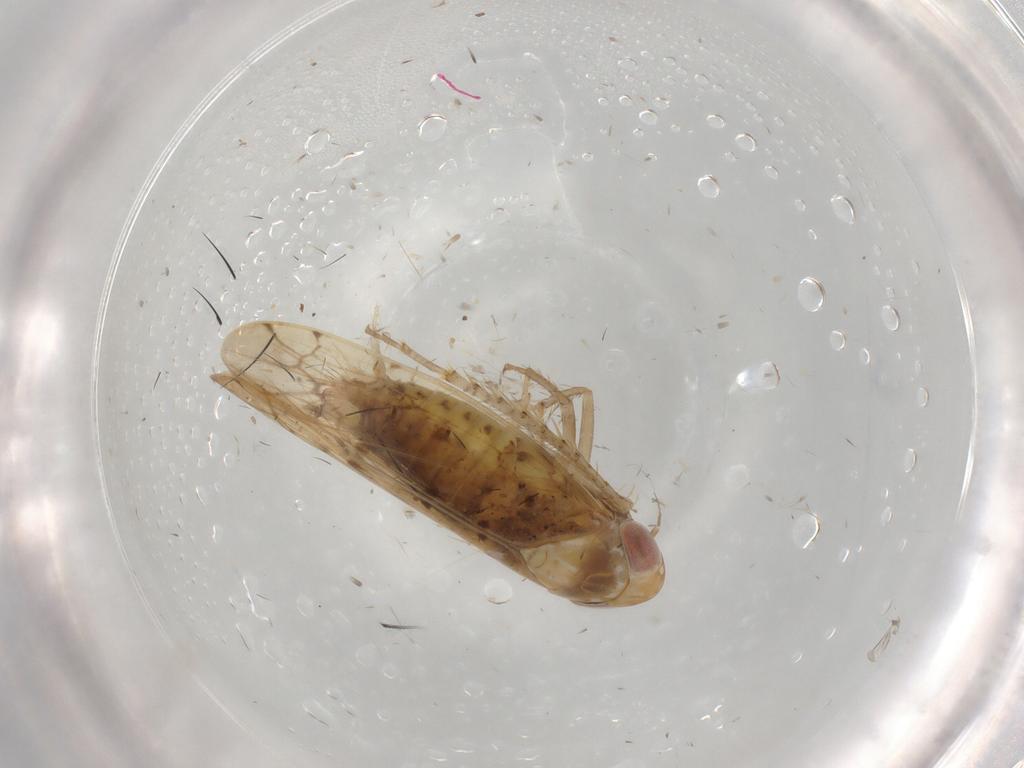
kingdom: Animalia
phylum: Arthropoda
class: Insecta
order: Hemiptera
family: Cicadellidae
